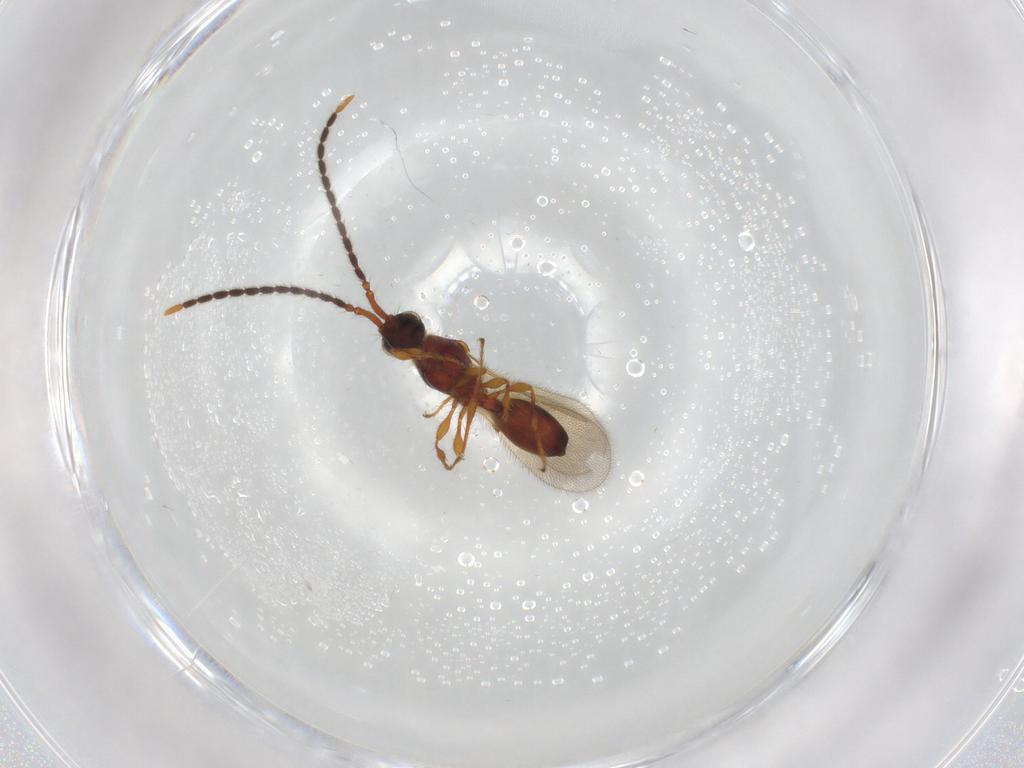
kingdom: Animalia
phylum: Arthropoda
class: Insecta
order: Hymenoptera
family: Diapriidae
